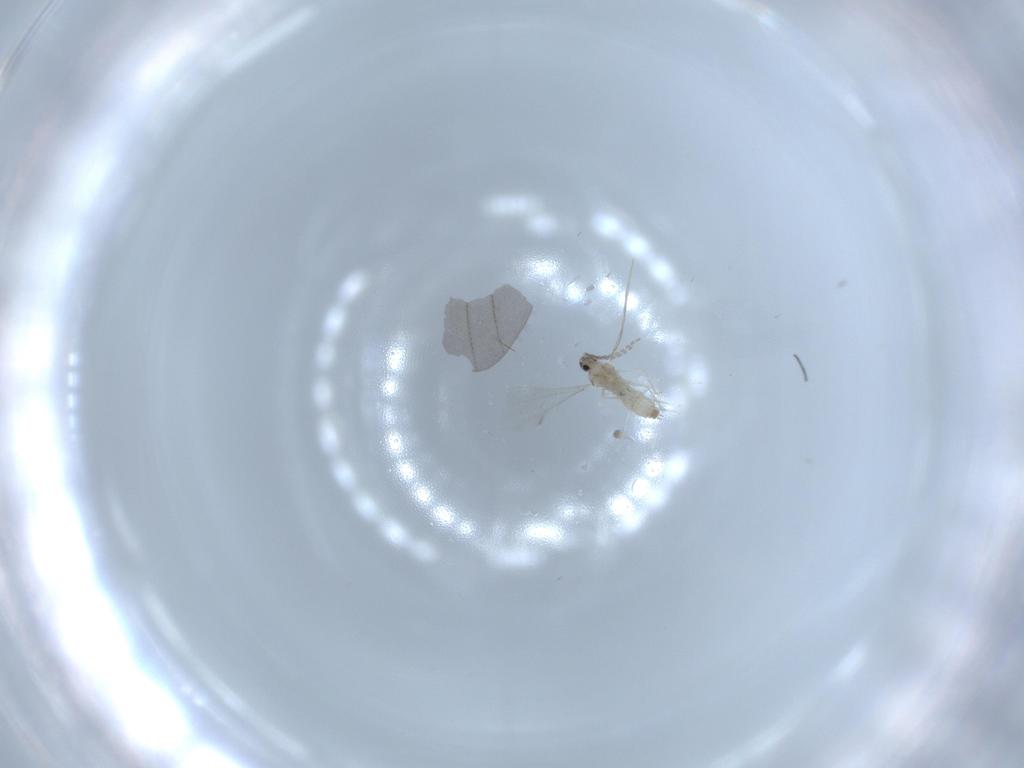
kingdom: Animalia
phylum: Arthropoda
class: Insecta
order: Diptera
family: Cecidomyiidae
